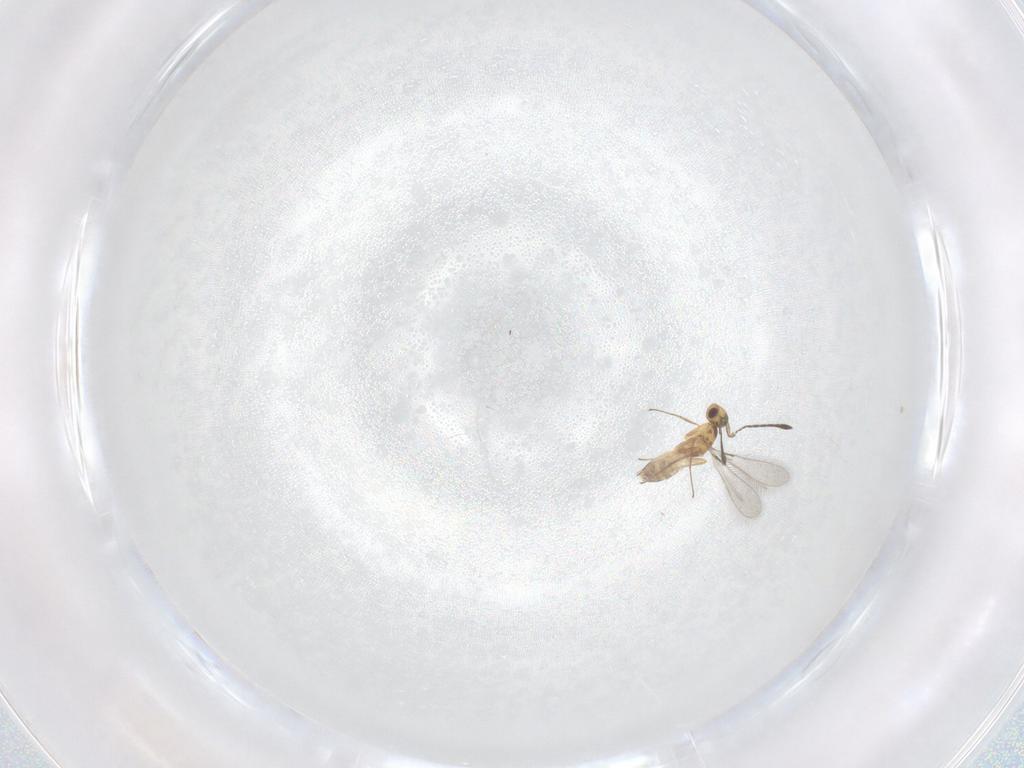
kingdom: Animalia
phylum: Arthropoda
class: Insecta
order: Hymenoptera
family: Mymaridae
